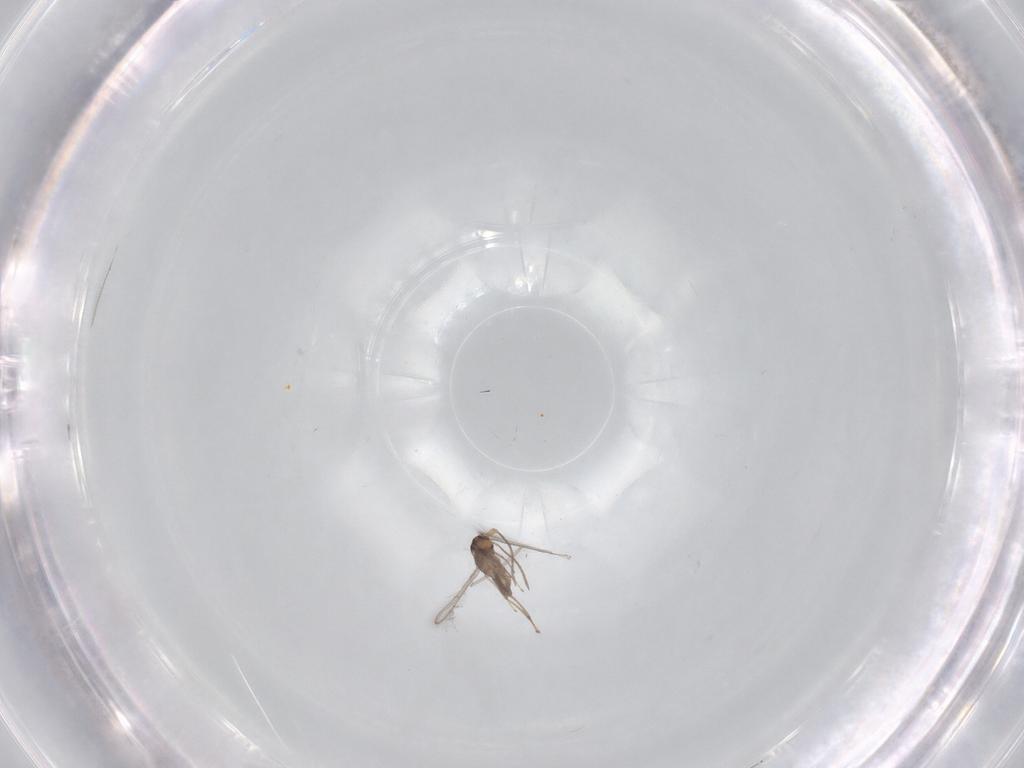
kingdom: Animalia
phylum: Arthropoda
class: Insecta
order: Hymenoptera
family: Mymaridae
